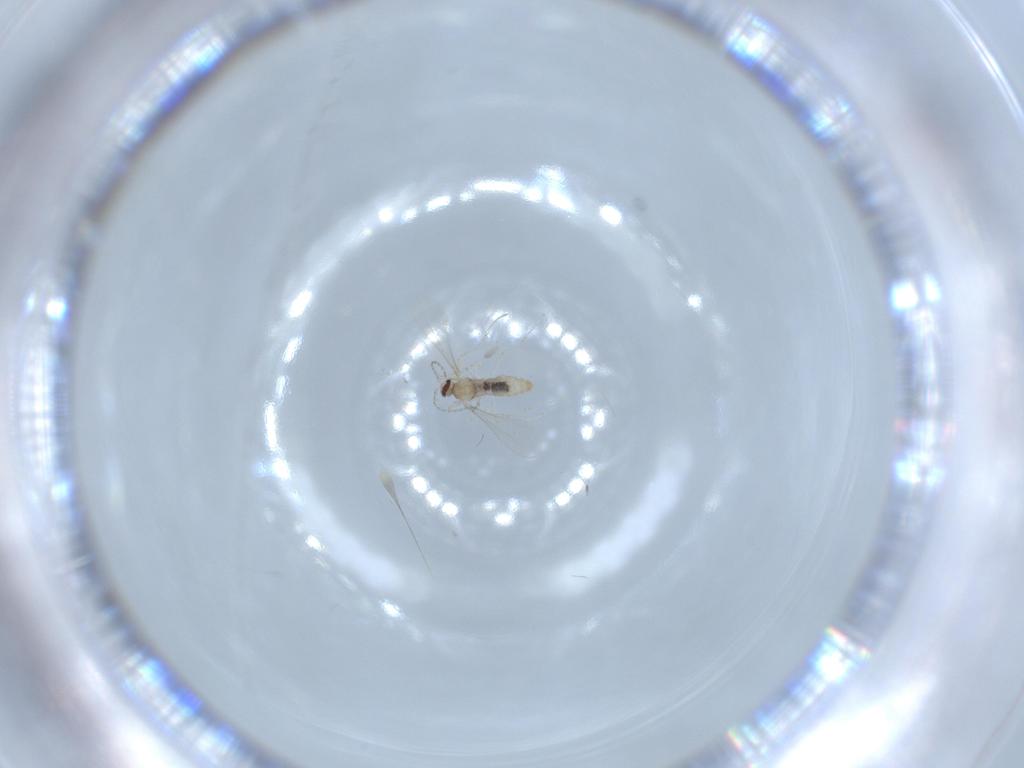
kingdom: Animalia
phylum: Arthropoda
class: Insecta
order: Diptera
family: Cecidomyiidae
